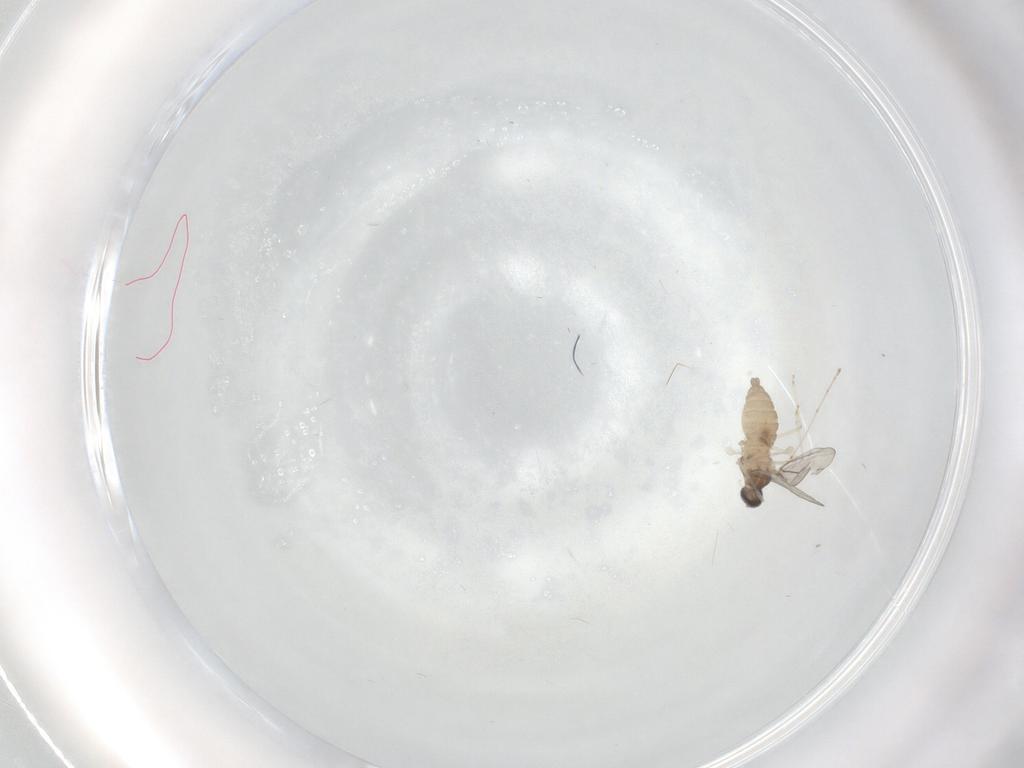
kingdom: Animalia
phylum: Arthropoda
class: Insecta
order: Diptera
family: Cecidomyiidae
